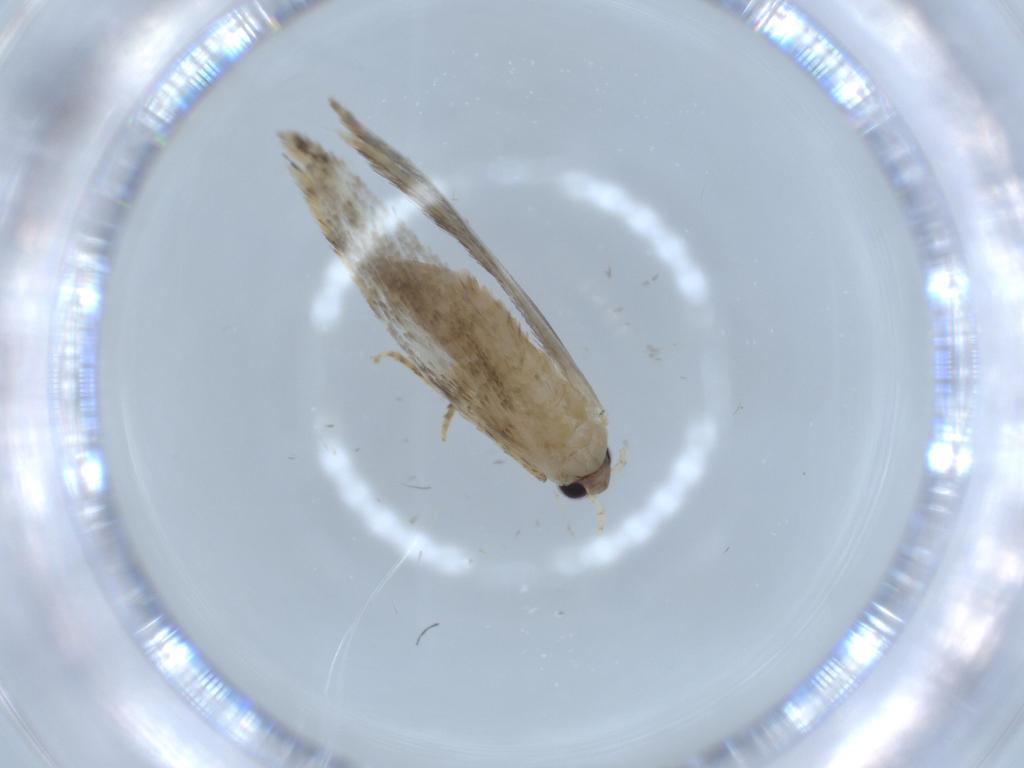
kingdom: Animalia
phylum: Arthropoda
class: Insecta
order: Lepidoptera
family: Tineidae
